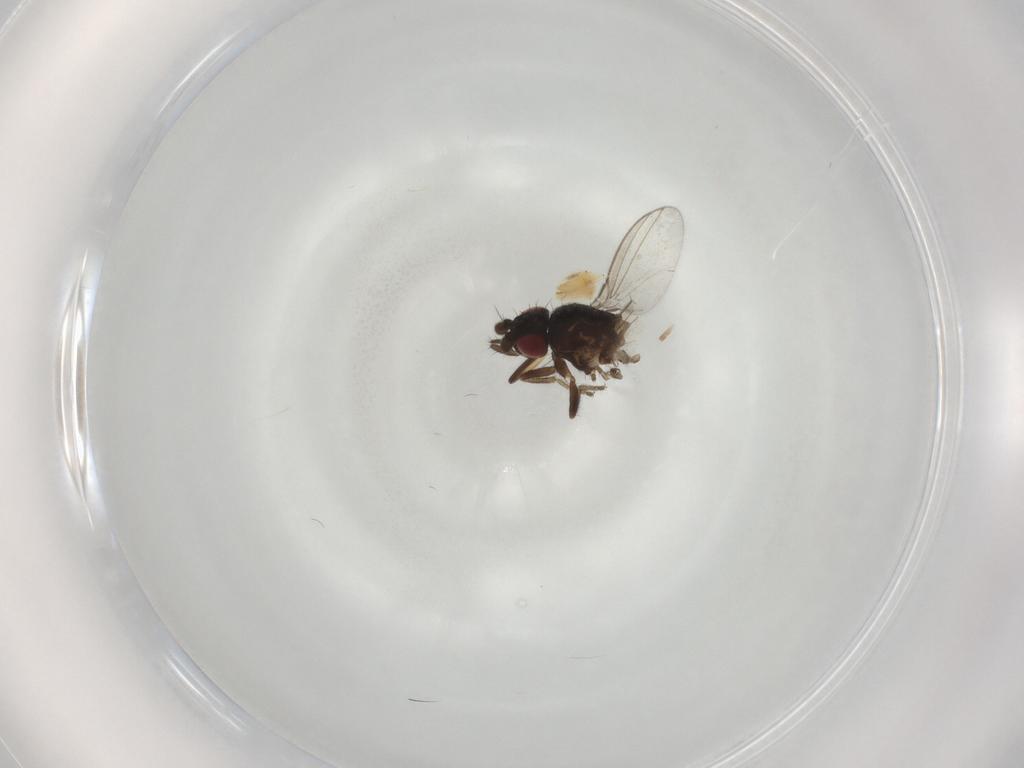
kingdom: Animalia
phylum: Arthropoda
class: Insecta
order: Diptera
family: Milichiidae
